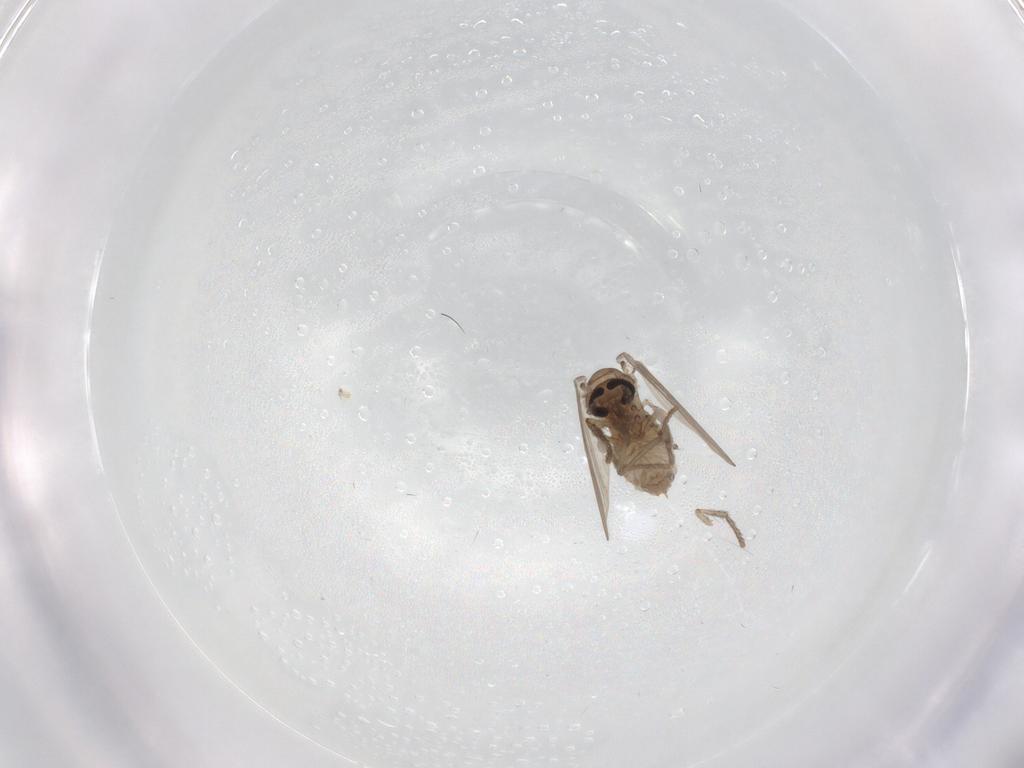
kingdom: Animalia
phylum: Arthropoda
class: Insecta
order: Diptera
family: Psychodidae
